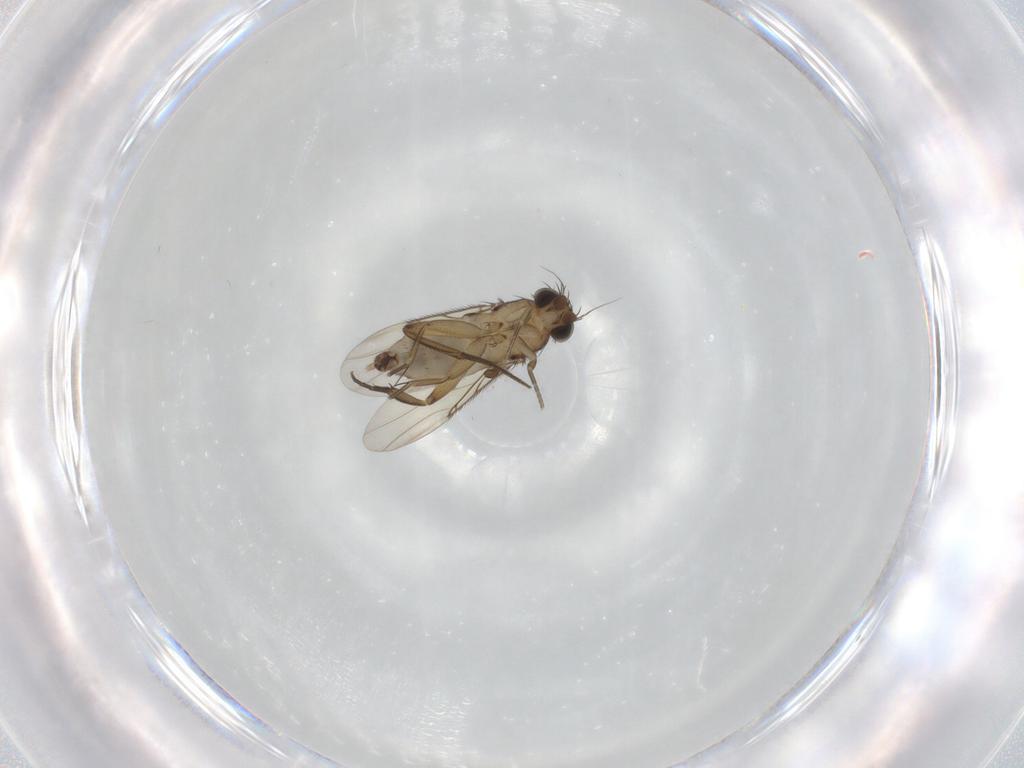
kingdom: Animalia
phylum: Arthropoda
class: Insecta
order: Diptera
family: Phoridae
